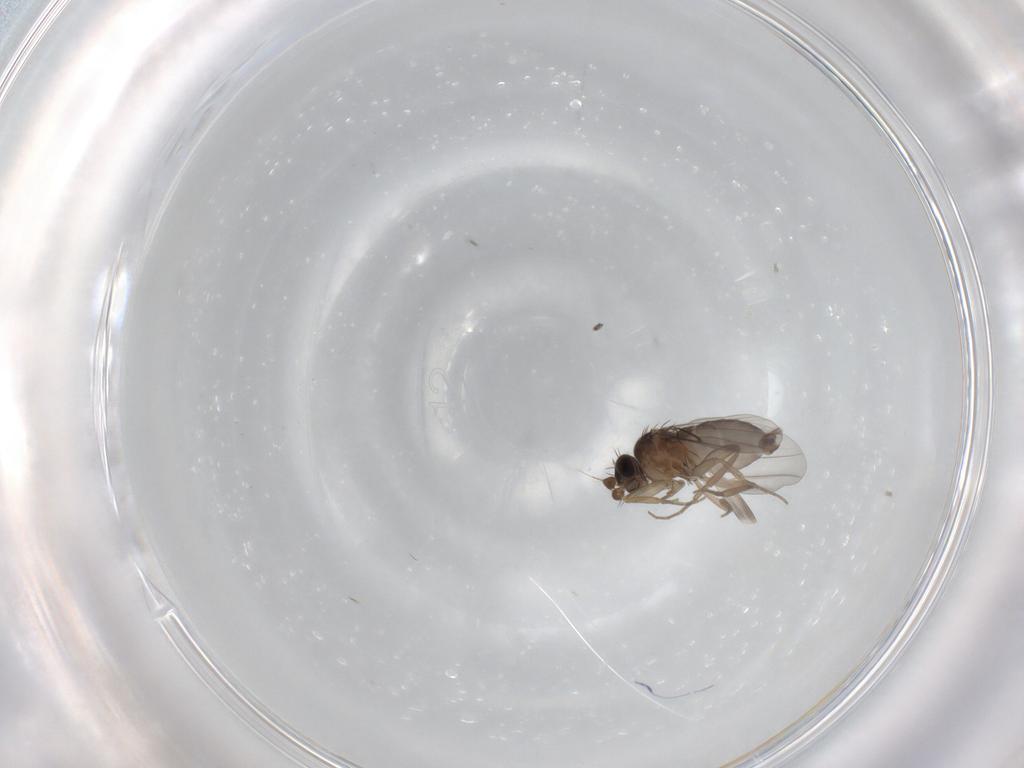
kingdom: Animalia
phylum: Arthropoda
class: Insecta
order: Diptera
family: Phoridae
